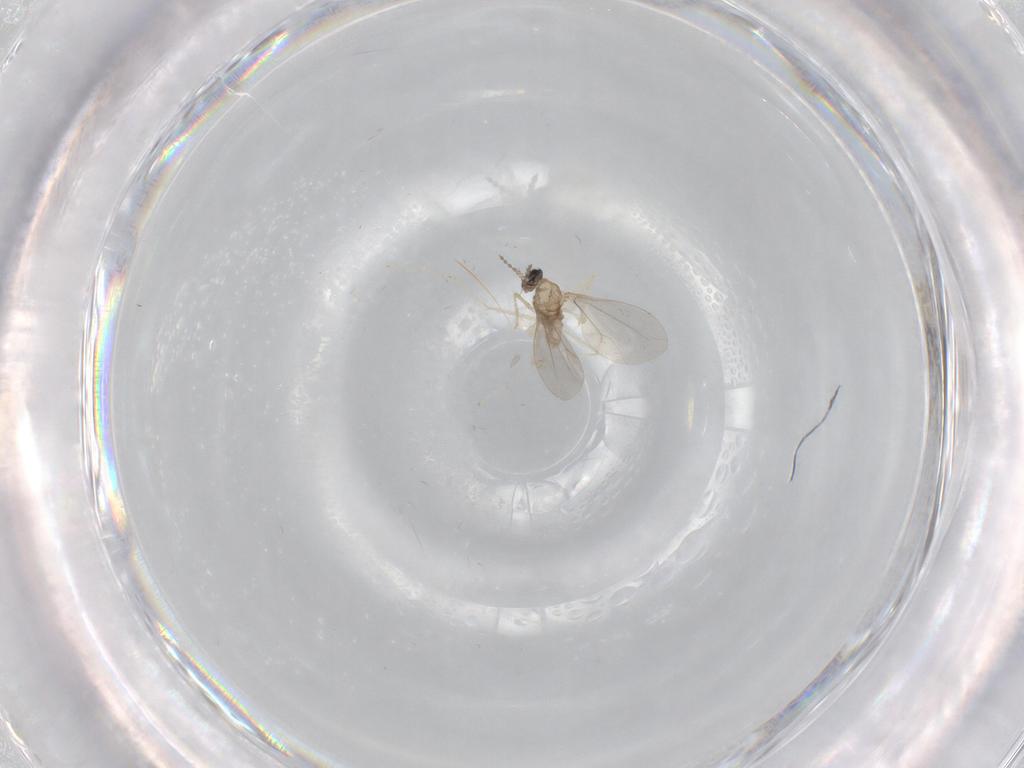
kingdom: Animalia
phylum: Arthropoda
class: Insecta
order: Diptera
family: Cecidomyiidae
